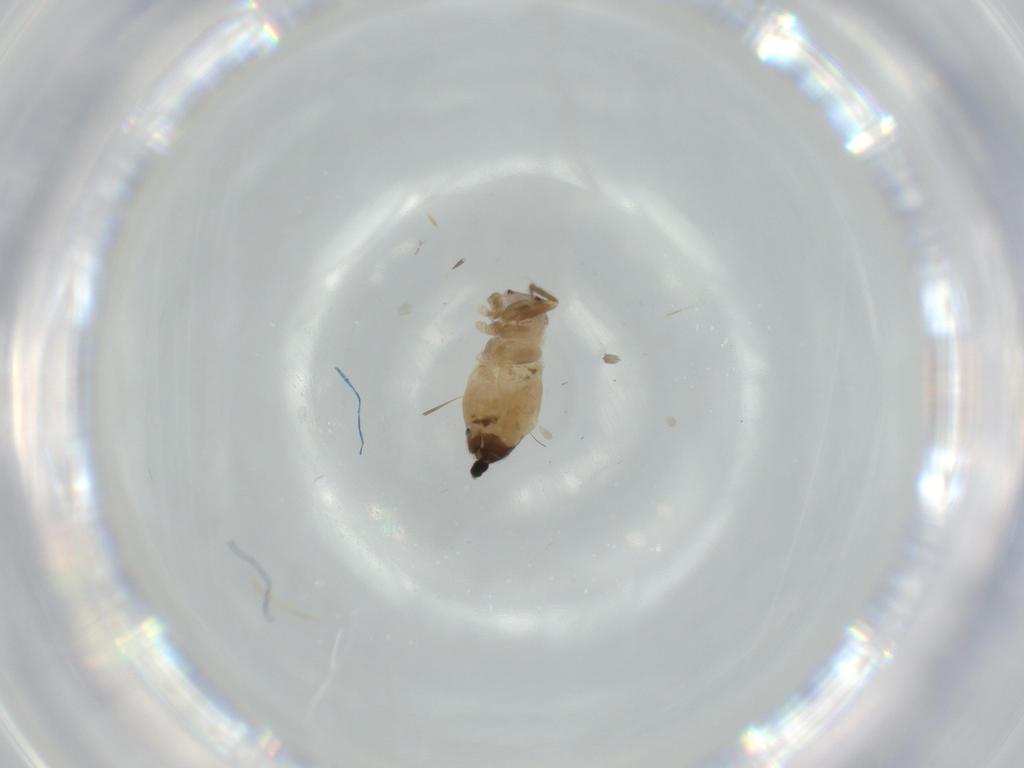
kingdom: Animalia
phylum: Arthropoda
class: Insecta
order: Psocodea
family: Lepidopsocidae
